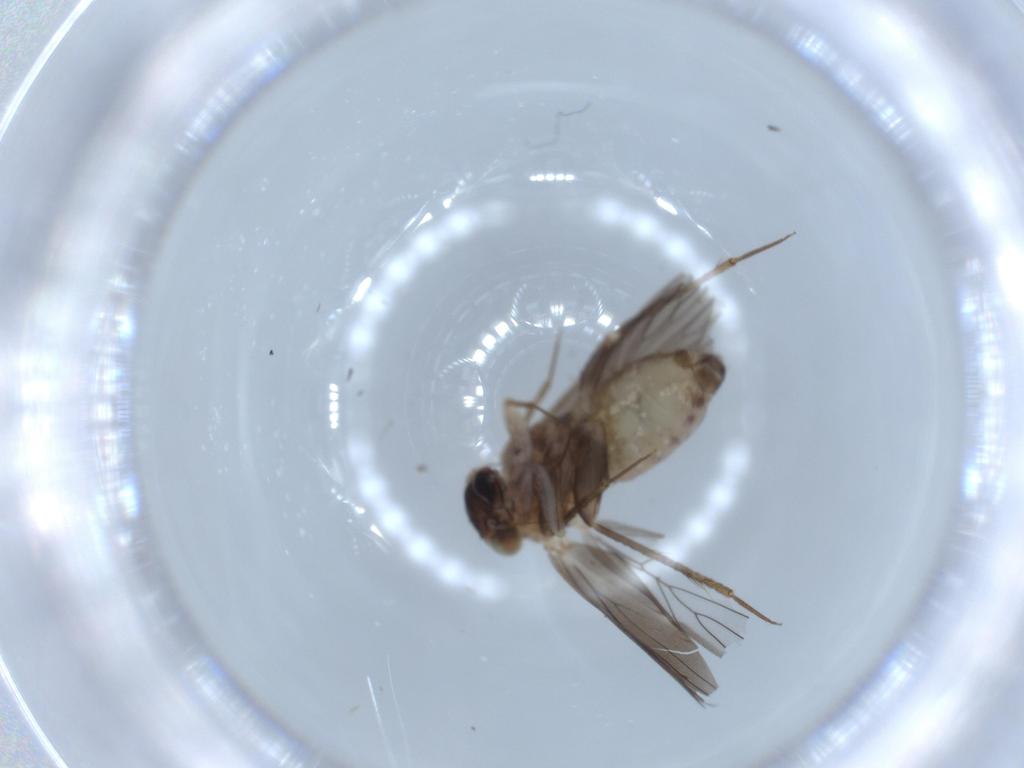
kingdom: Animalia
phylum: Arthropoda
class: Insecta
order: Psocodea
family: Lepidopsocidae
